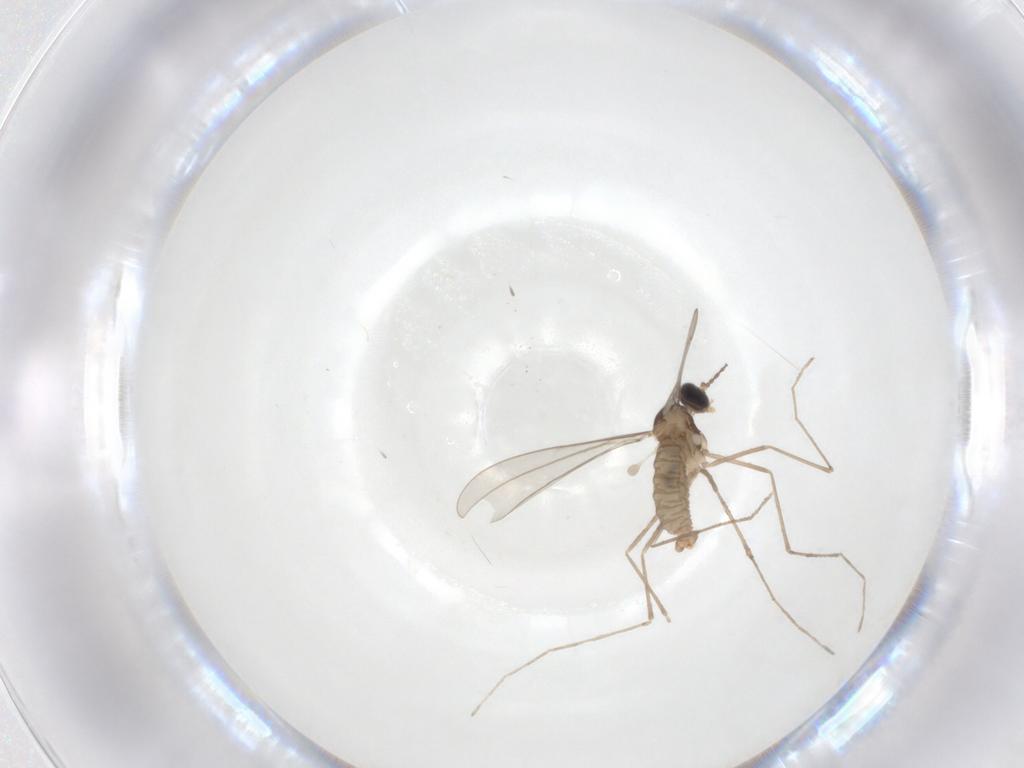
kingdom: Animalia
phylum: Arthropoda
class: Insecta
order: Diptera
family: Cecidomyiidae
